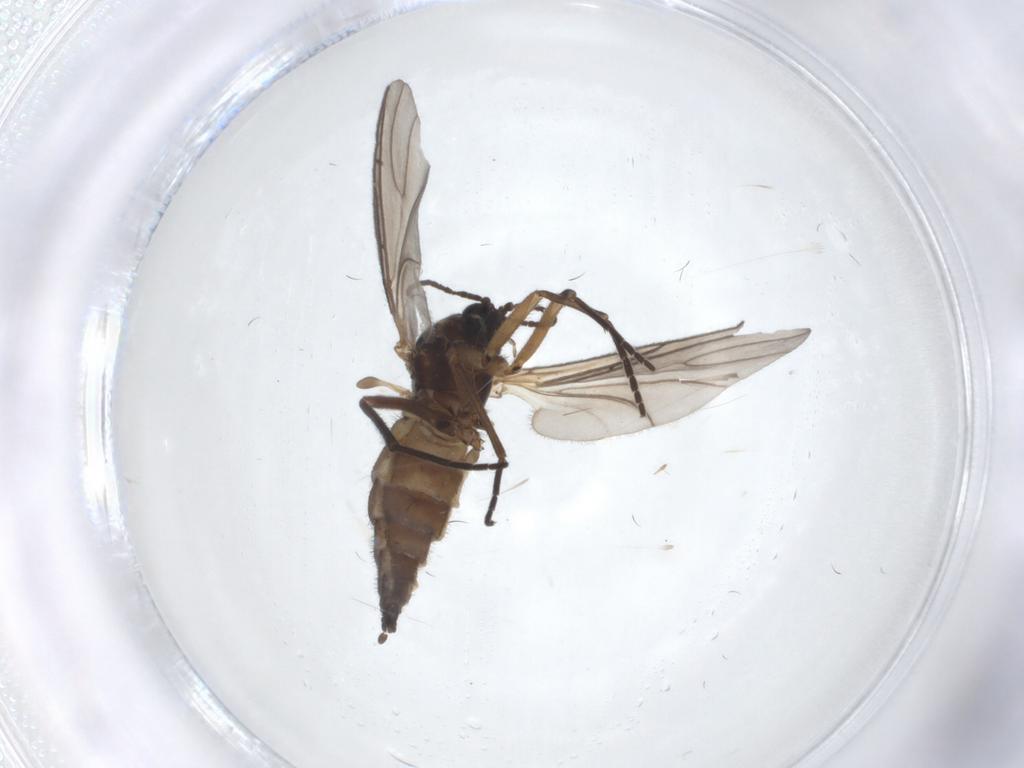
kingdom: Animalia
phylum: Arthropoda
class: Insecta
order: Diptera
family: Sciaridae
